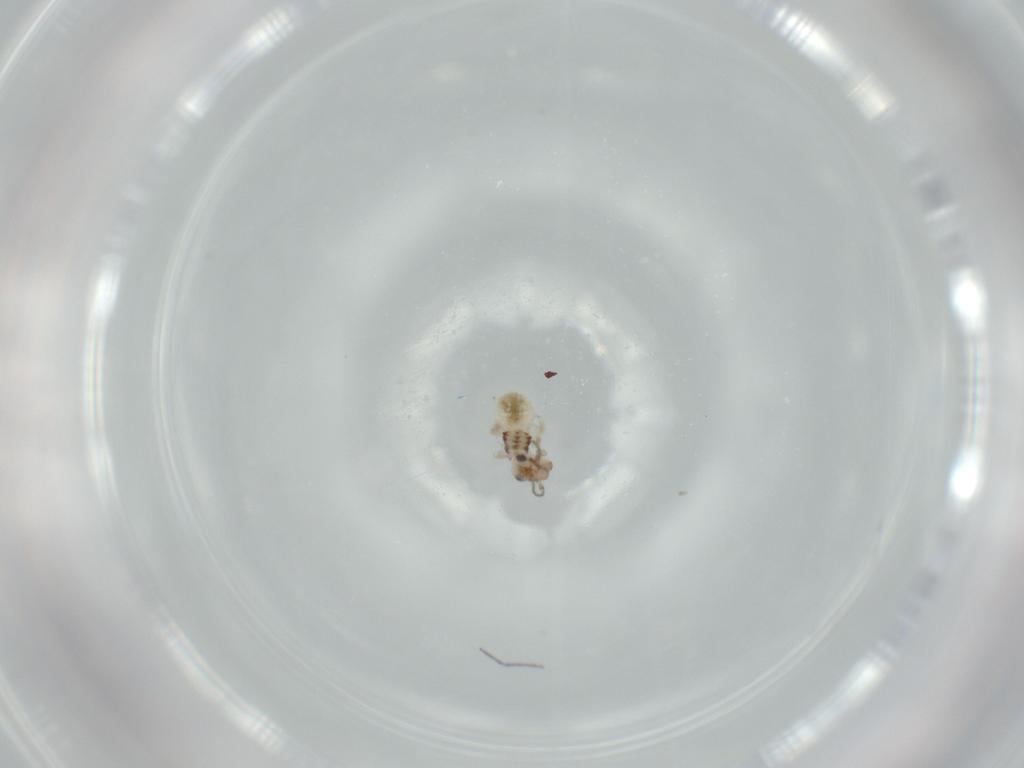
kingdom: Animalia
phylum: Arthropoda
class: Insecta
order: Psocodea
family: Lepidopsocidae
